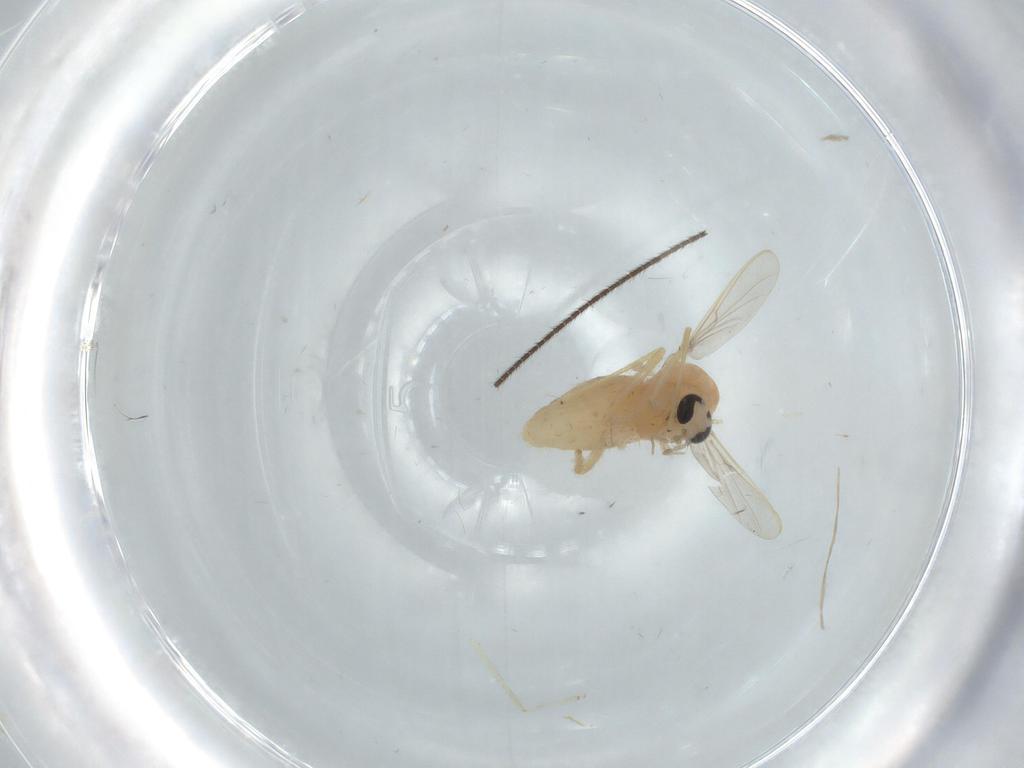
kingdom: Animalia
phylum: Arthropoda
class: Insecta
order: Diptera
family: Chironomidae
